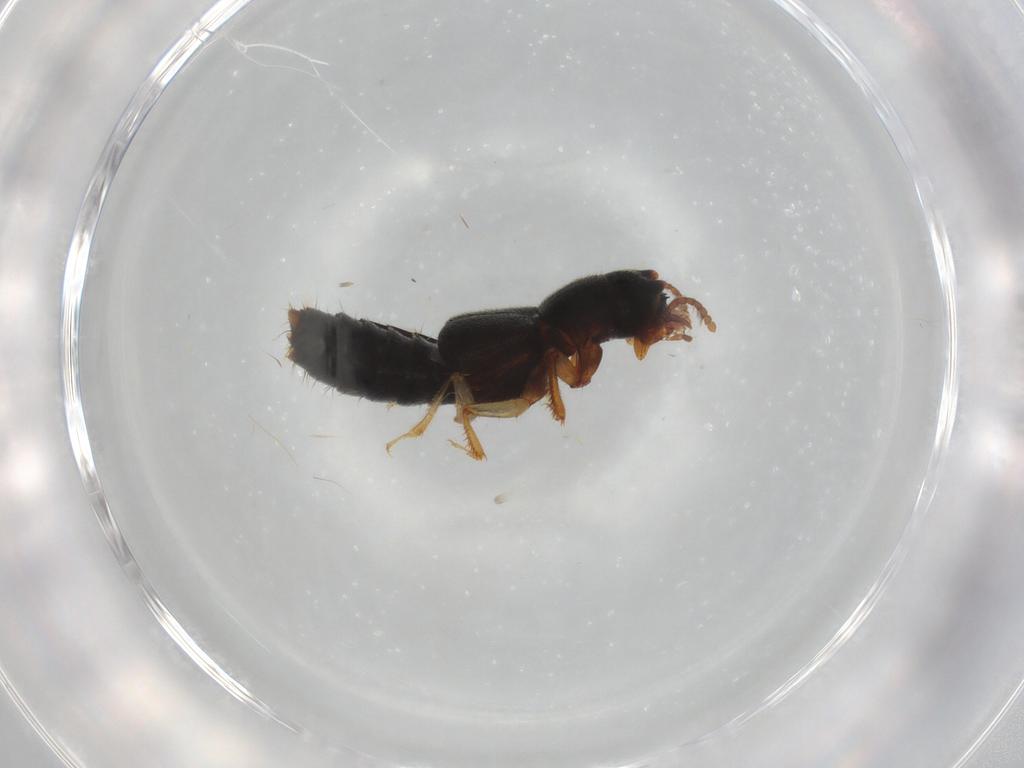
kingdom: Animalia
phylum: Arthropoda
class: Insecta
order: Coleoptera
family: Staphylinidae
